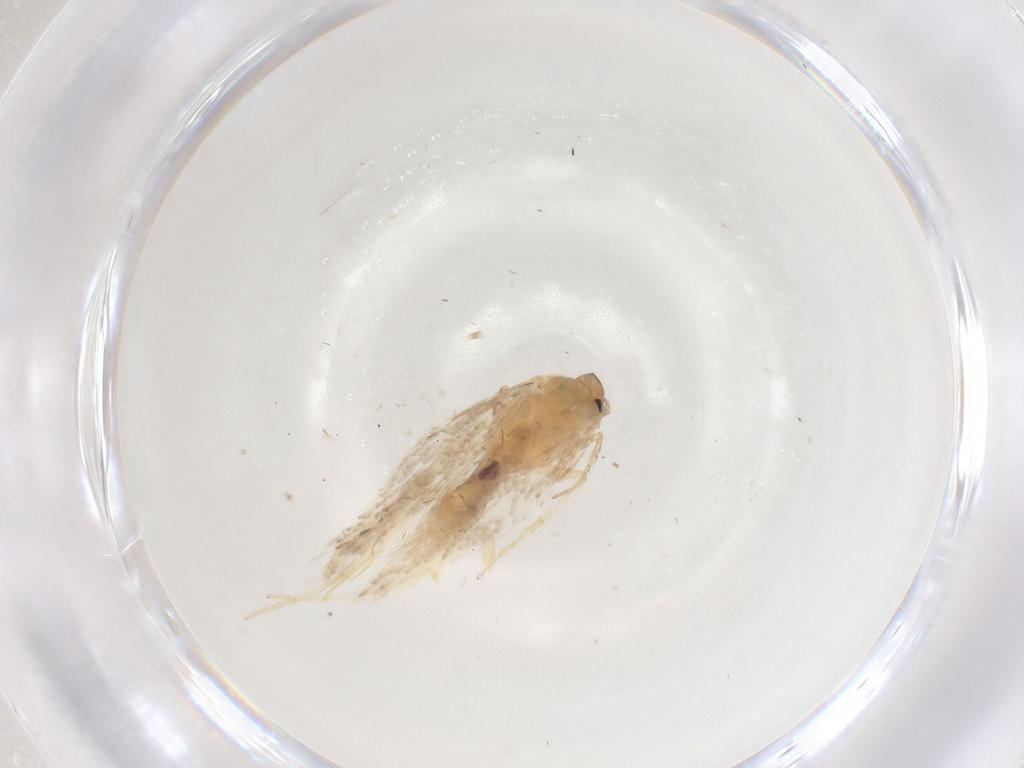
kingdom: Animalia
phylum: Arthropoda
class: Insecta
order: Lepidoptera
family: Gelechiidae
